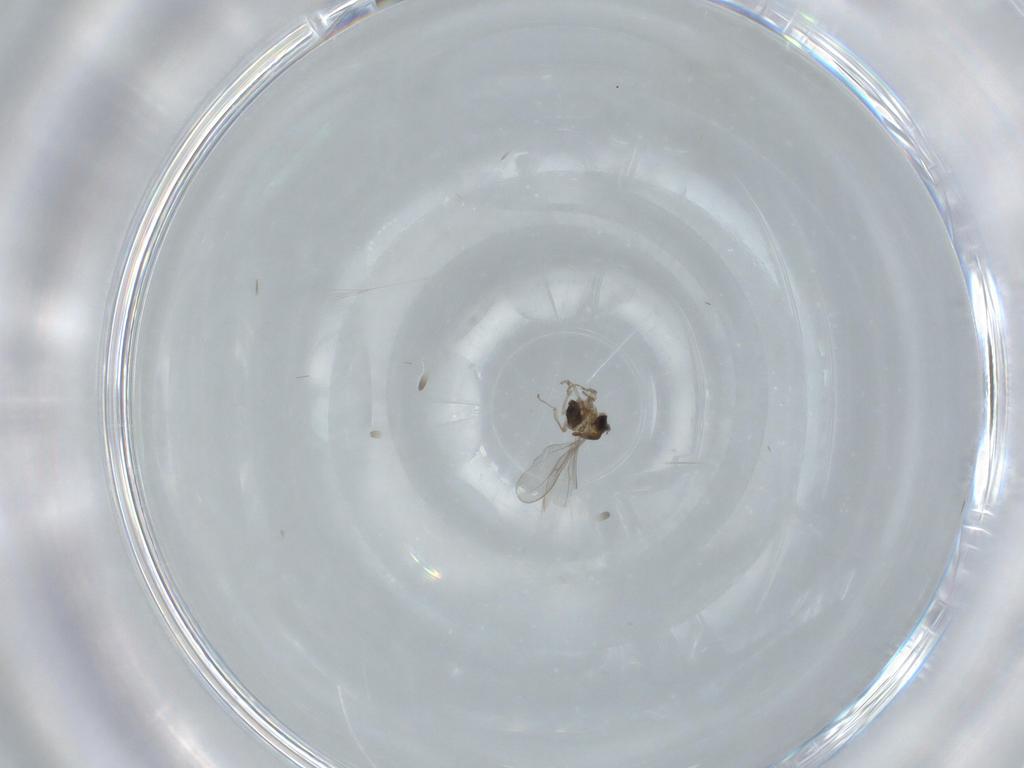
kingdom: Animalia
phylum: Arthropoda
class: Insecta
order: Diptera
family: Cecidomyiidae
